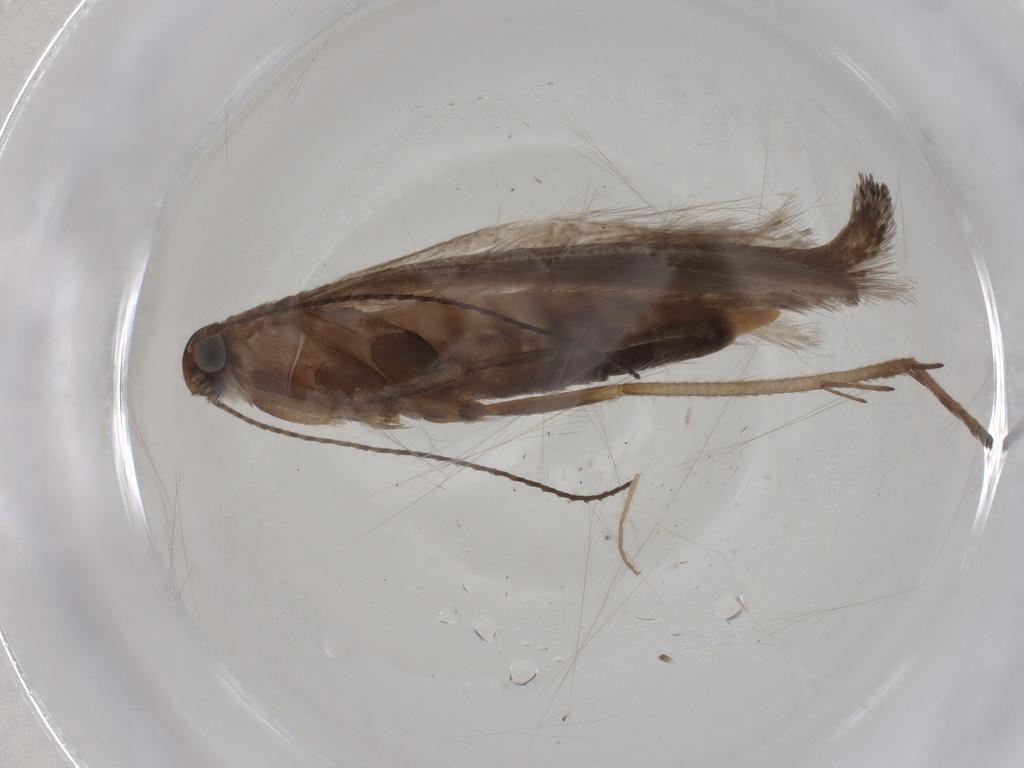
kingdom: Animalia
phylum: Arthropoda
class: Insecta
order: Lepidoptera
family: Gelechiidae
